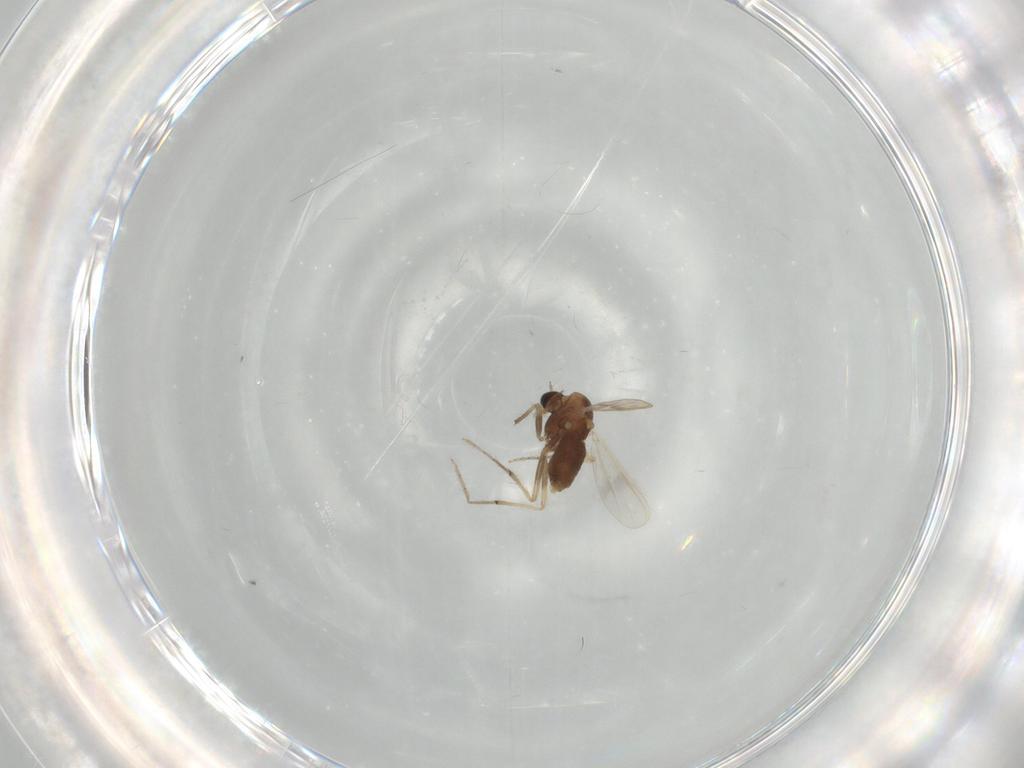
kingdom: Animalia
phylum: Arthropoda
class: Insecta
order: Diptera
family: Chironomidae
